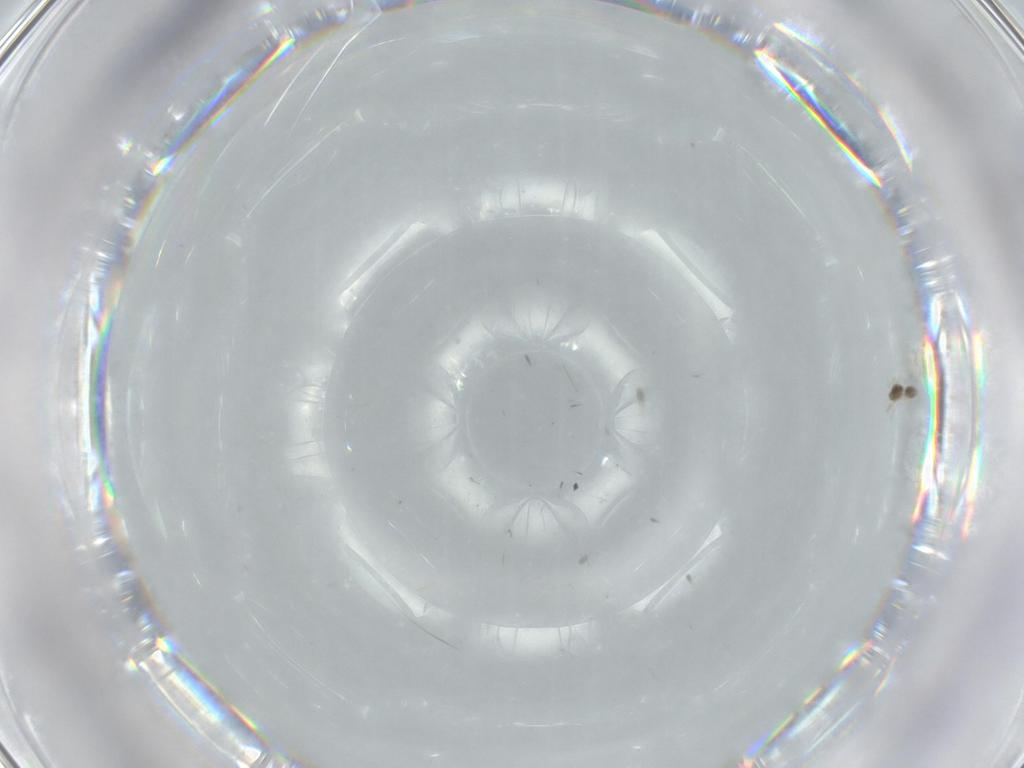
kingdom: Animalia
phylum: Arthropoda
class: Insecta
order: Hymenoptera
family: Mymarommatidae
